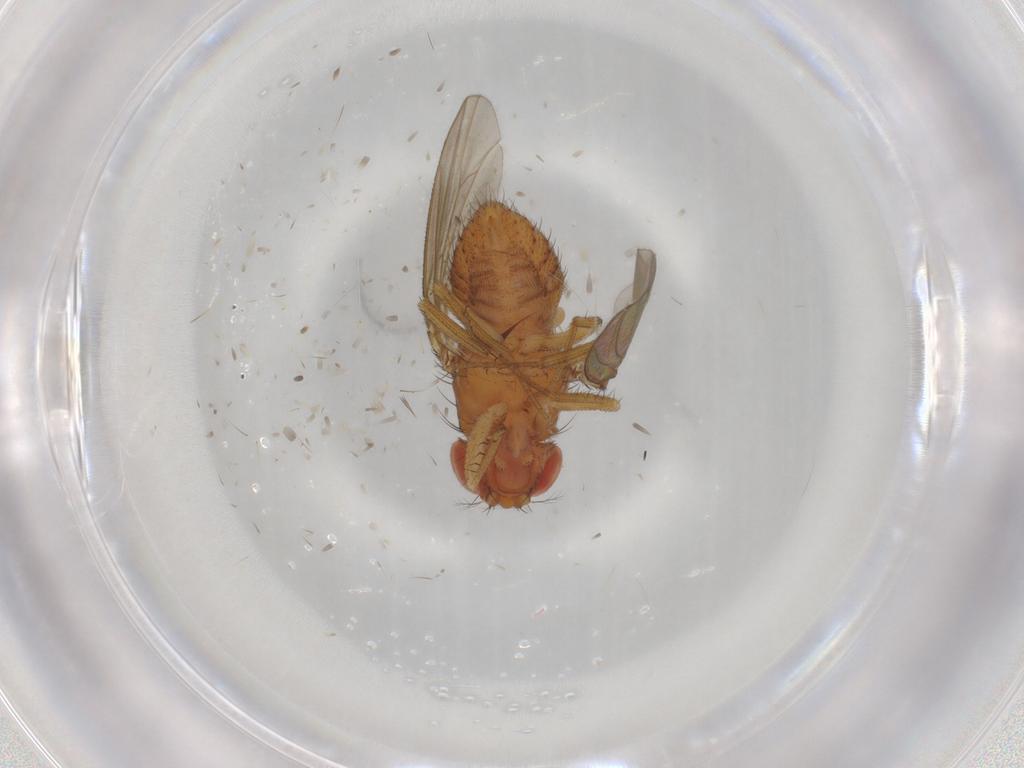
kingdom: Animalia
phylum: Arthropoda
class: Insecta
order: Diptera
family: Drosophilidae
